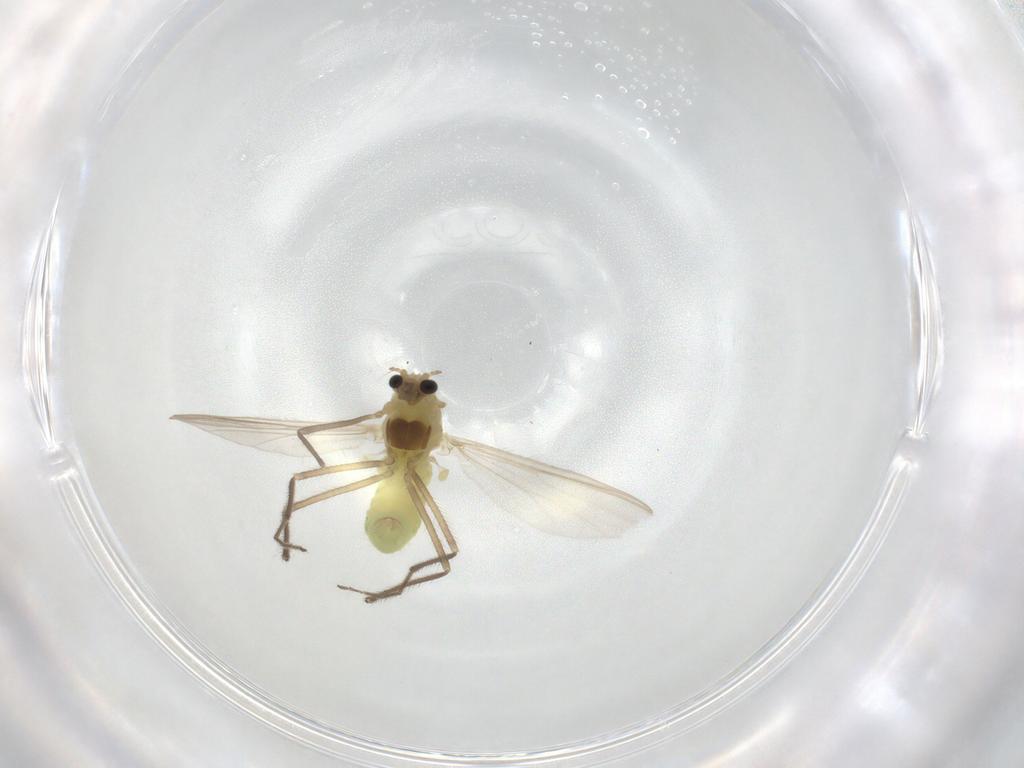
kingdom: Animalia
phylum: Arthropoda
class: Insecta
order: Diptera
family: Chironomidae
